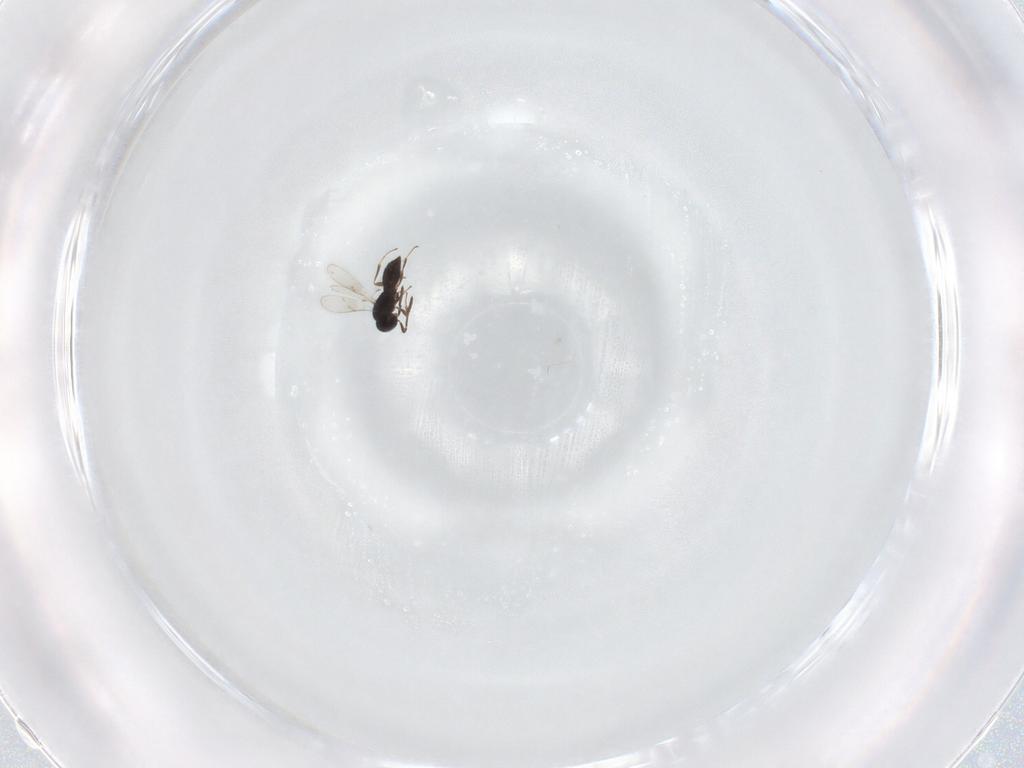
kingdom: Animalia
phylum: Arthropoda
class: Insecta
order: Hymenoptera
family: Scelionidae
